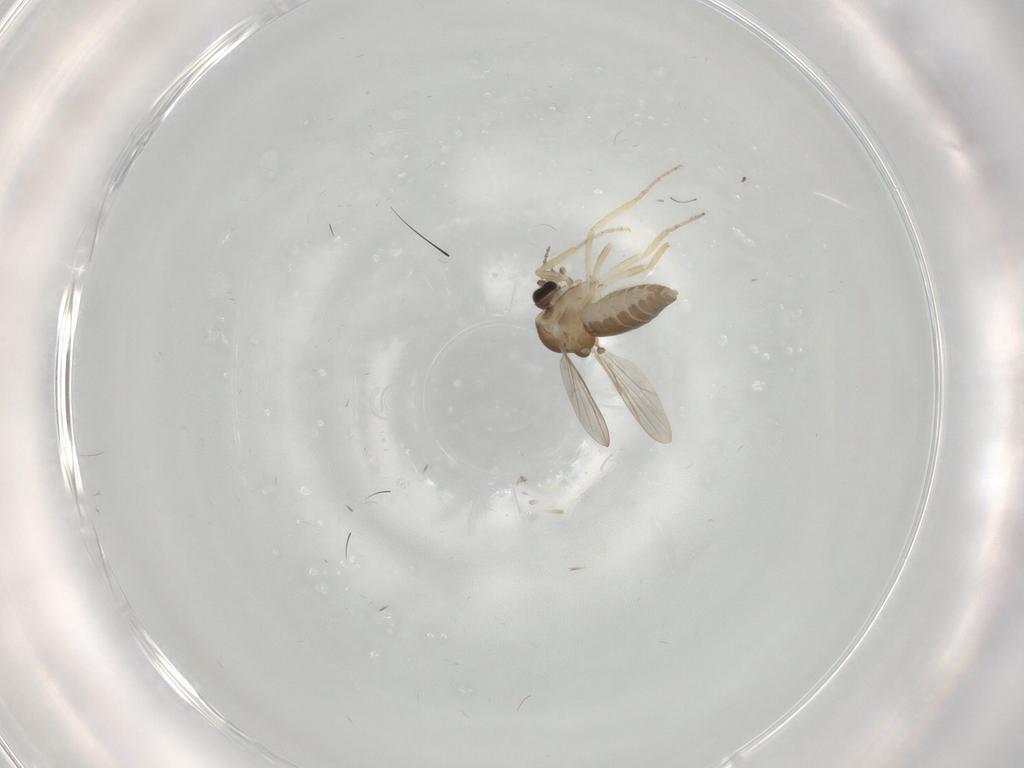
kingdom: Animalia
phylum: Arthropoda
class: Insecta
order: Diptera
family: Ceratopogonidae
